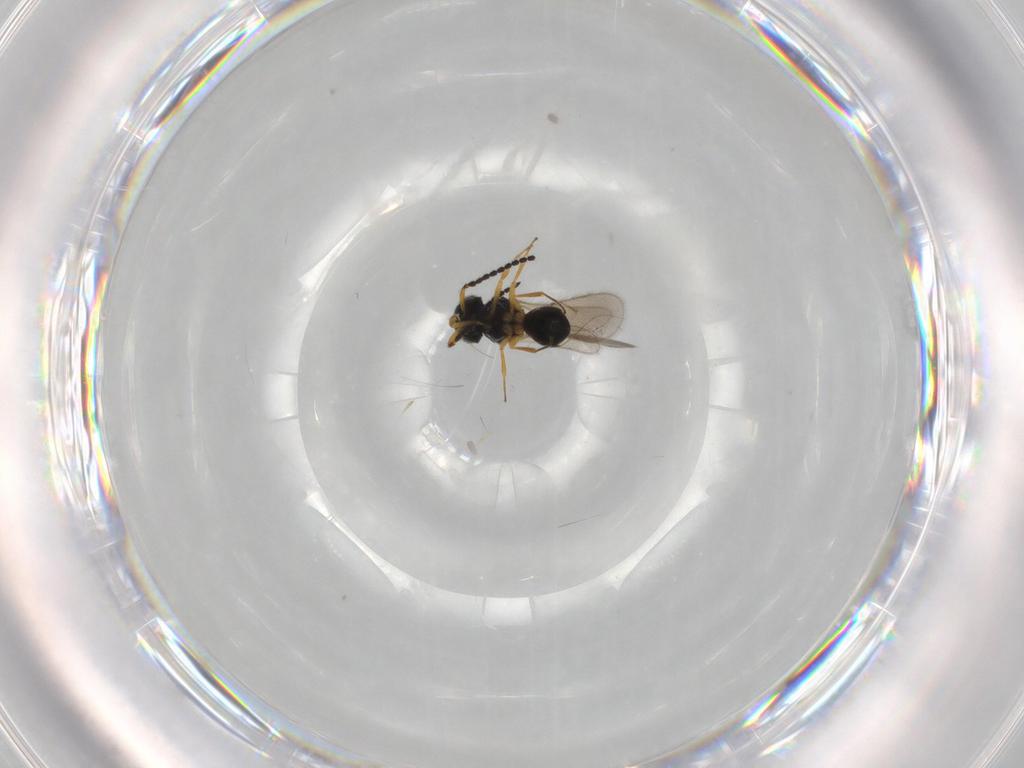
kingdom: Animalia
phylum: Arthropoda
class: Insecta
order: Hymenoptera
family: Scelionidae
